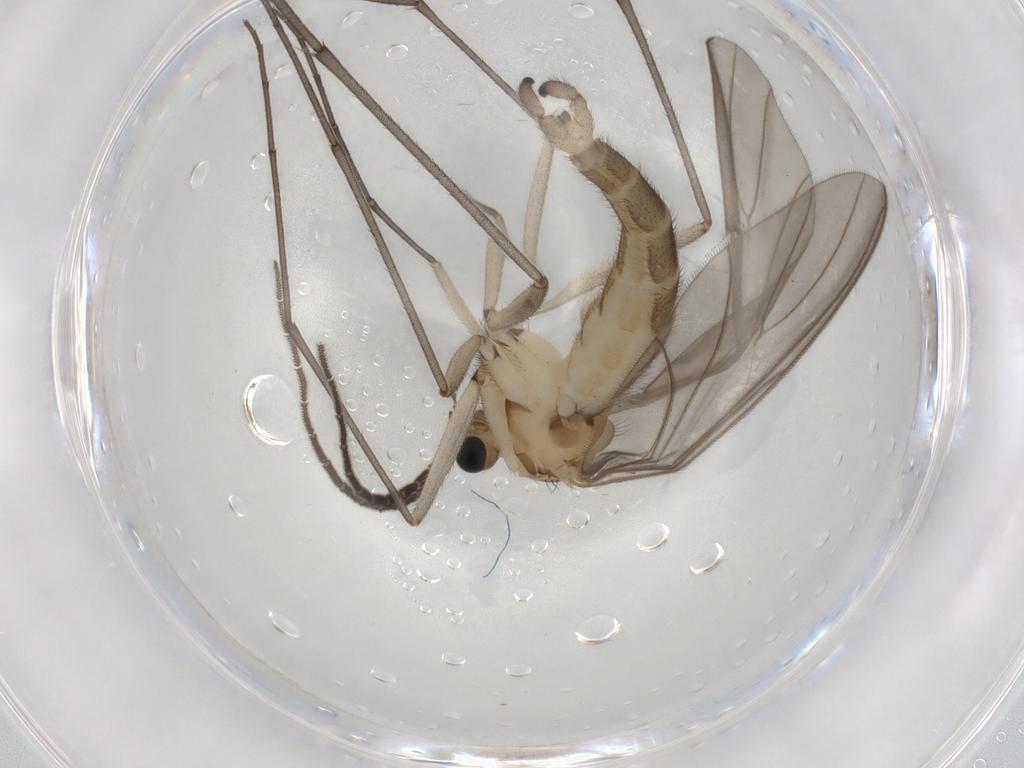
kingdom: Animalia
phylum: Arthropoda
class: Insecta
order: Diptera
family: Sciaridae
